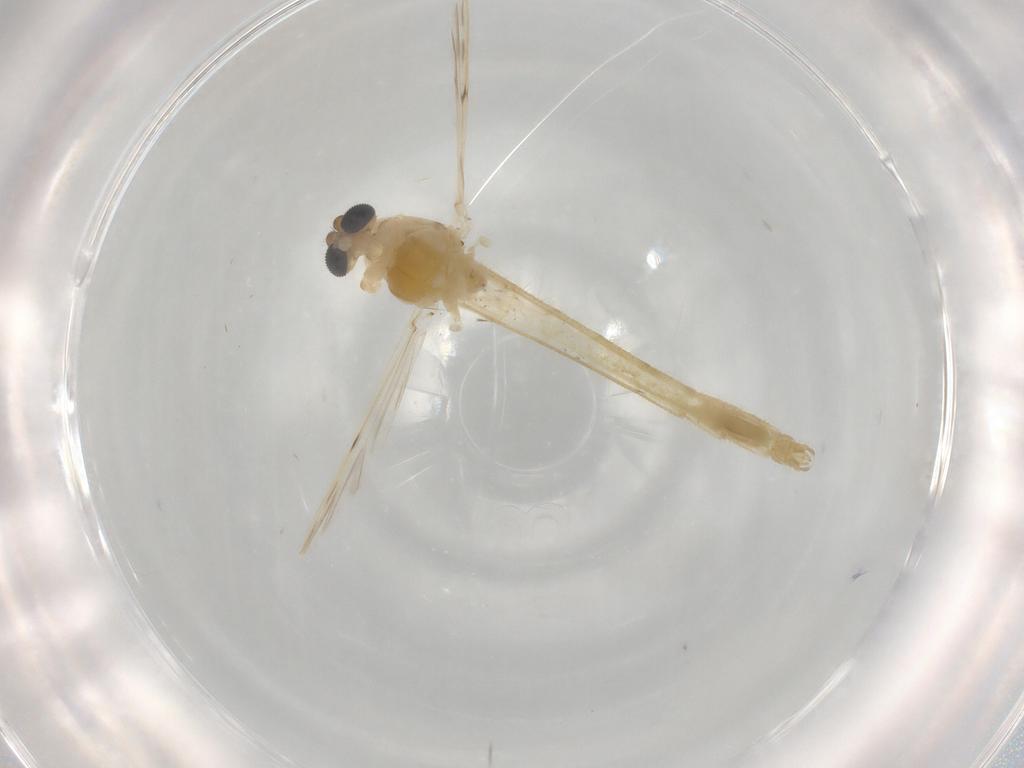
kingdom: Animalia
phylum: Arthropoda
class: Insecta
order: Diptera
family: Chironomidae
